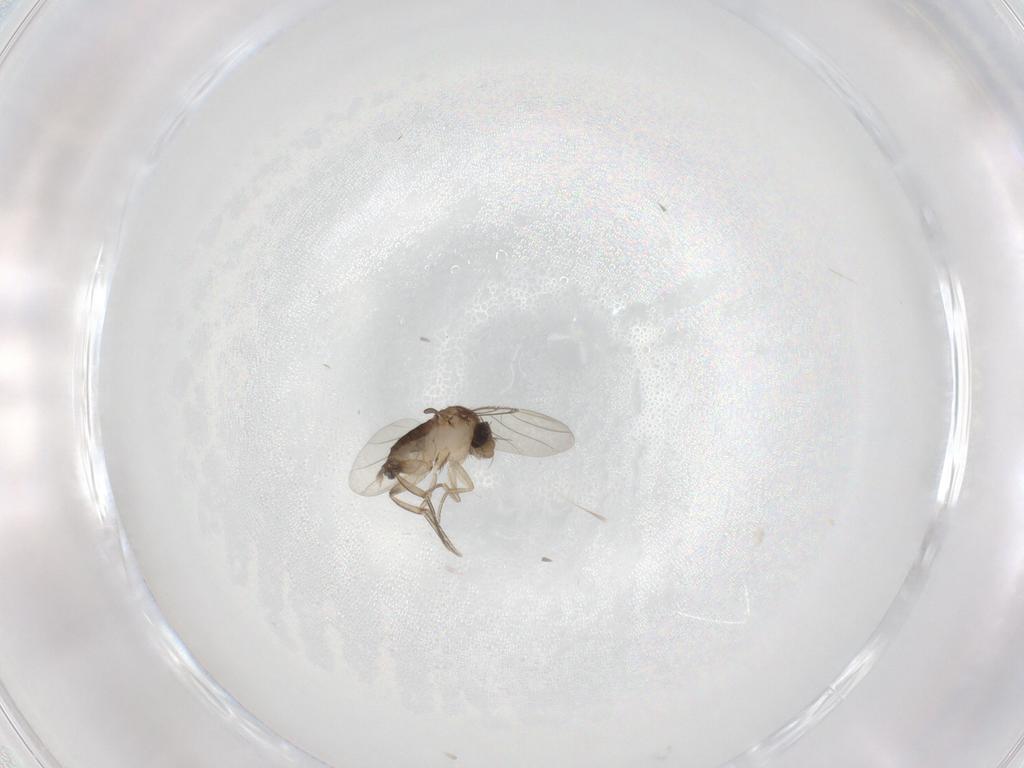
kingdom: Animalia
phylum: Arthropoda
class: Insecta
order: Diptera
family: Phoridae
